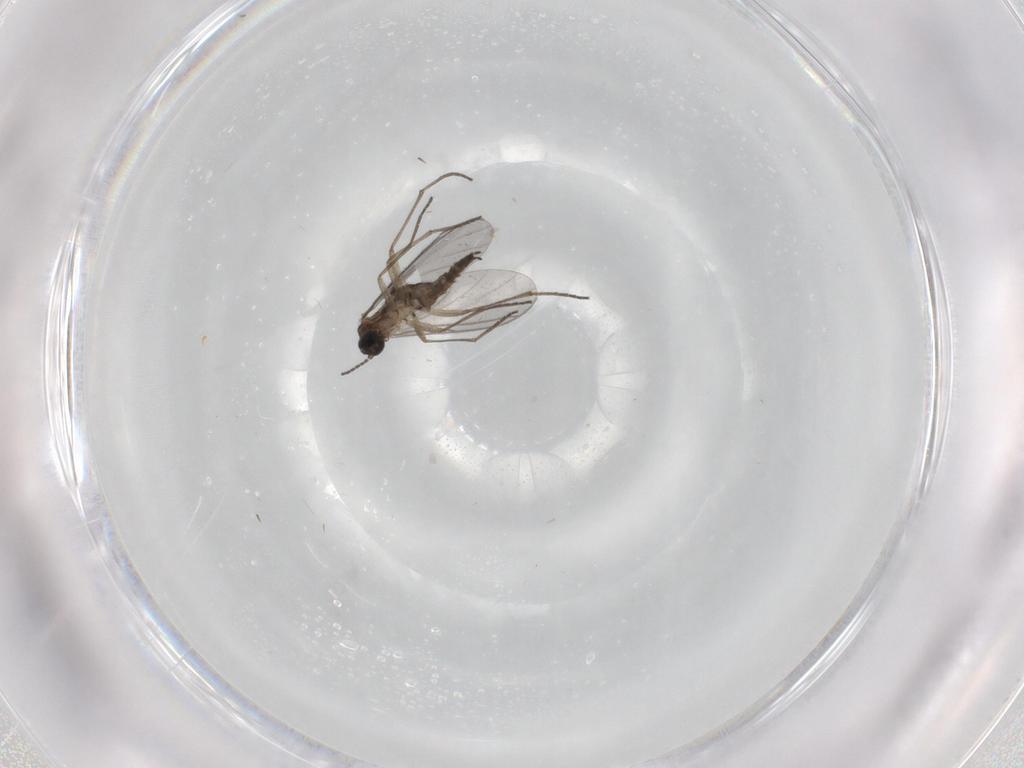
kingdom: Animalia
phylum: Arthropoda
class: Insecta
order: Diptera
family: Sciaridae
